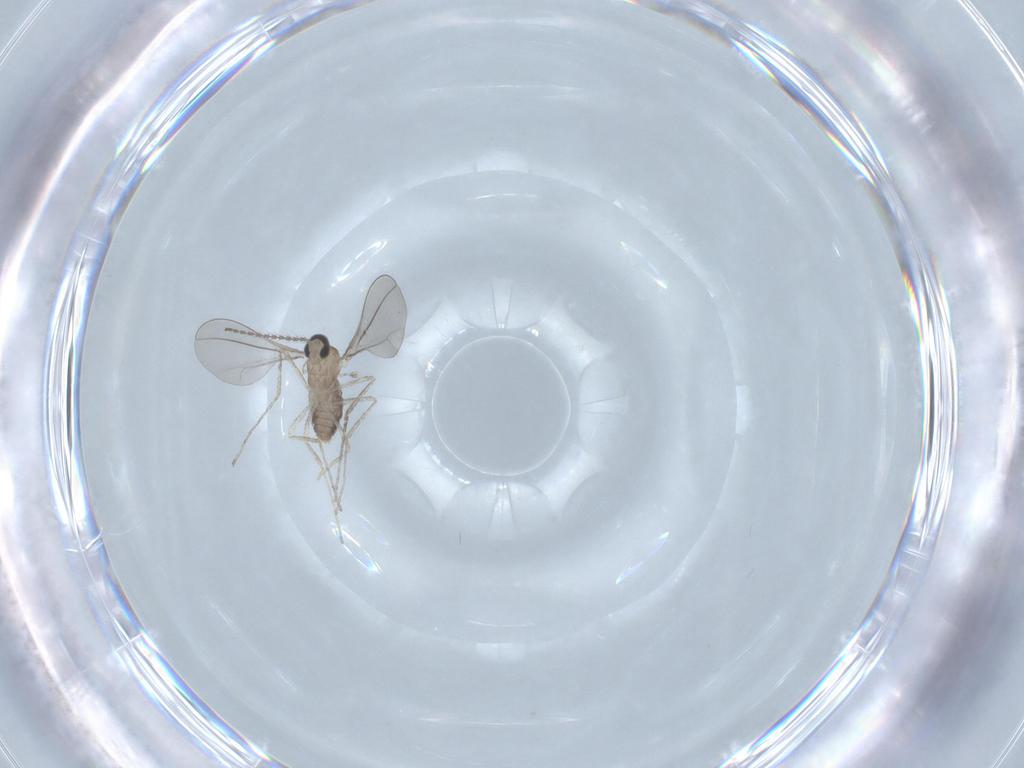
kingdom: Animalia
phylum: Arthropoda
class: Insecta
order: Diptera
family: Cecidomyiidae
